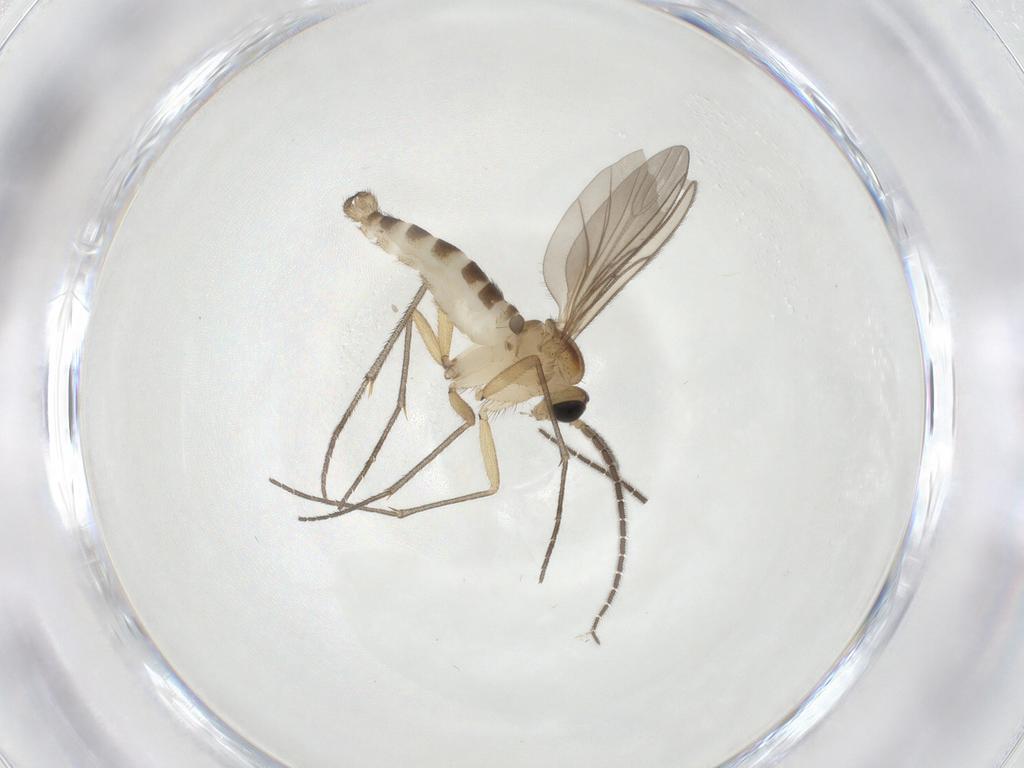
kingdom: Animalia
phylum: Arthropoda
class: Insecta
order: Diptera
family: Sciaridae
